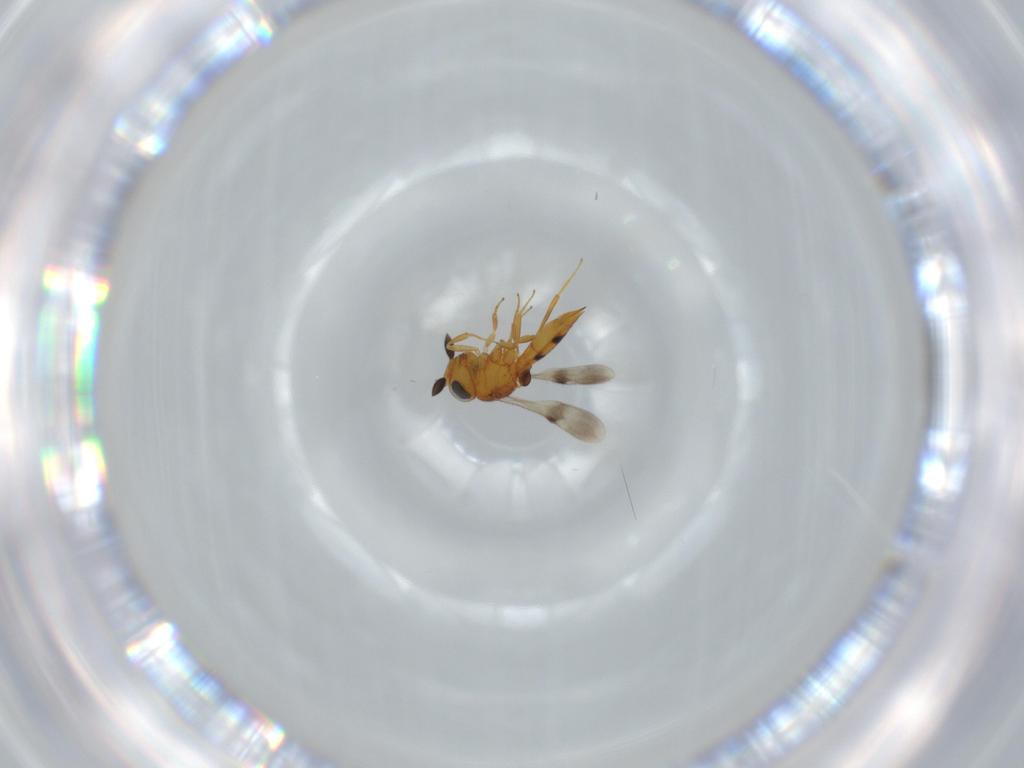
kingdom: Animalia
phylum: Arthropoda
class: Insecta
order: Hymenoptera
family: Scelionidae
